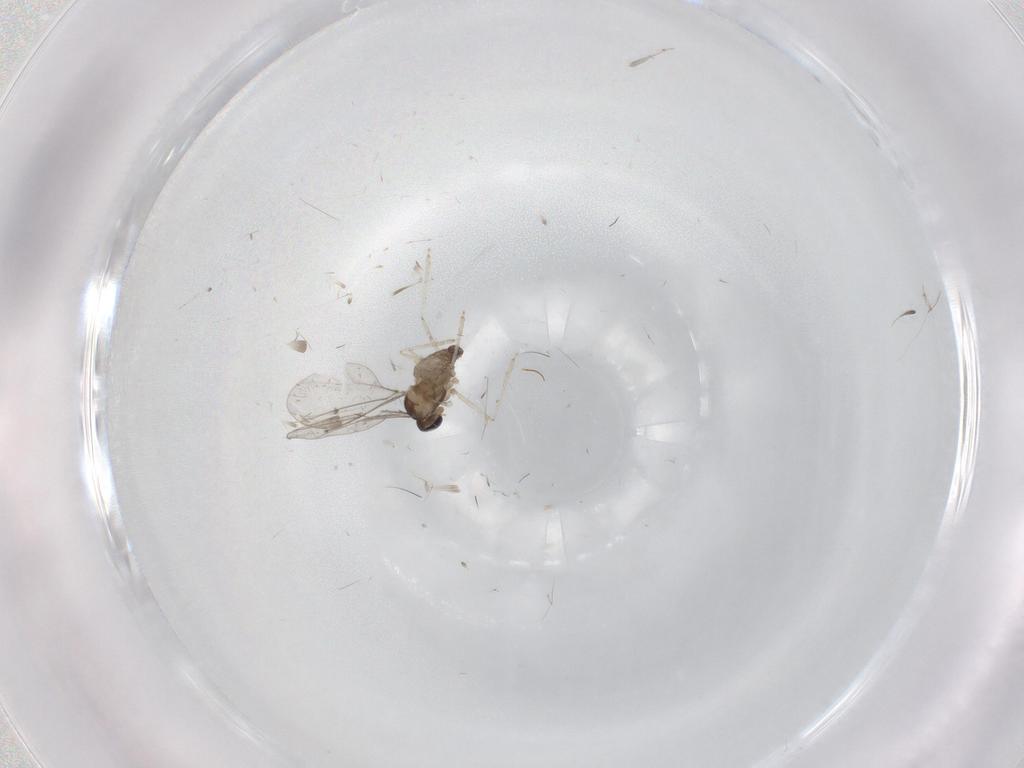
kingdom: Animalia
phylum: Arthropoda
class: Insecta
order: Diptera
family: Cecidomyiidae
